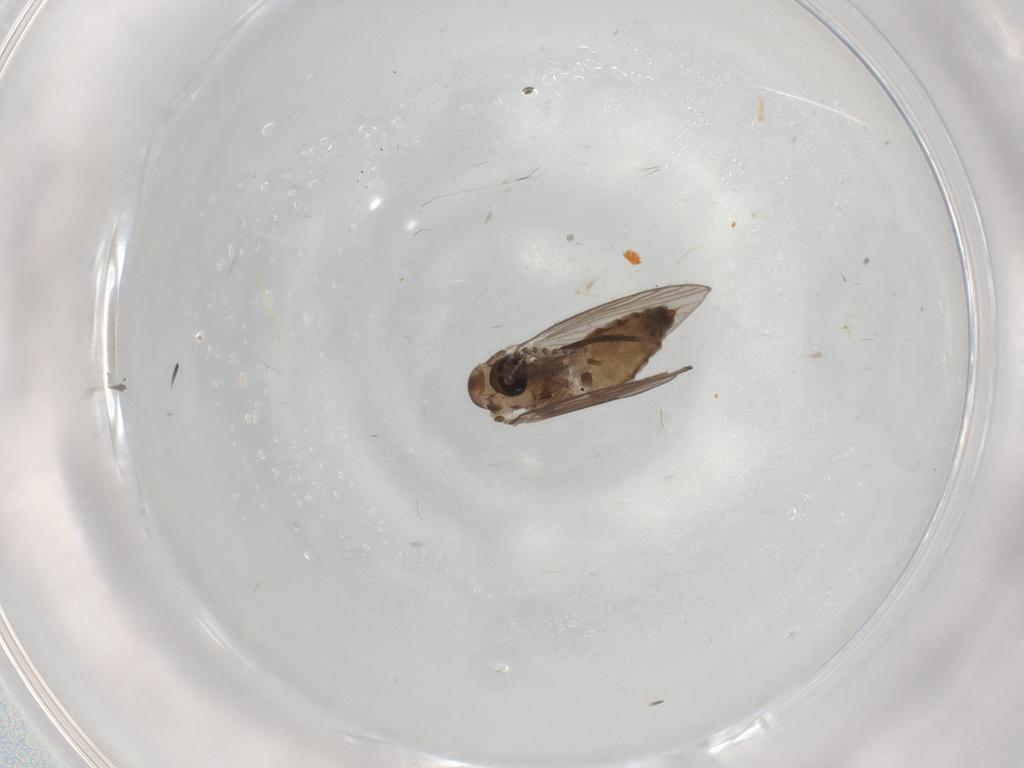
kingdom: Animalia
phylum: Arthropoda
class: Insecta
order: Diptera
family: Psychodidae
